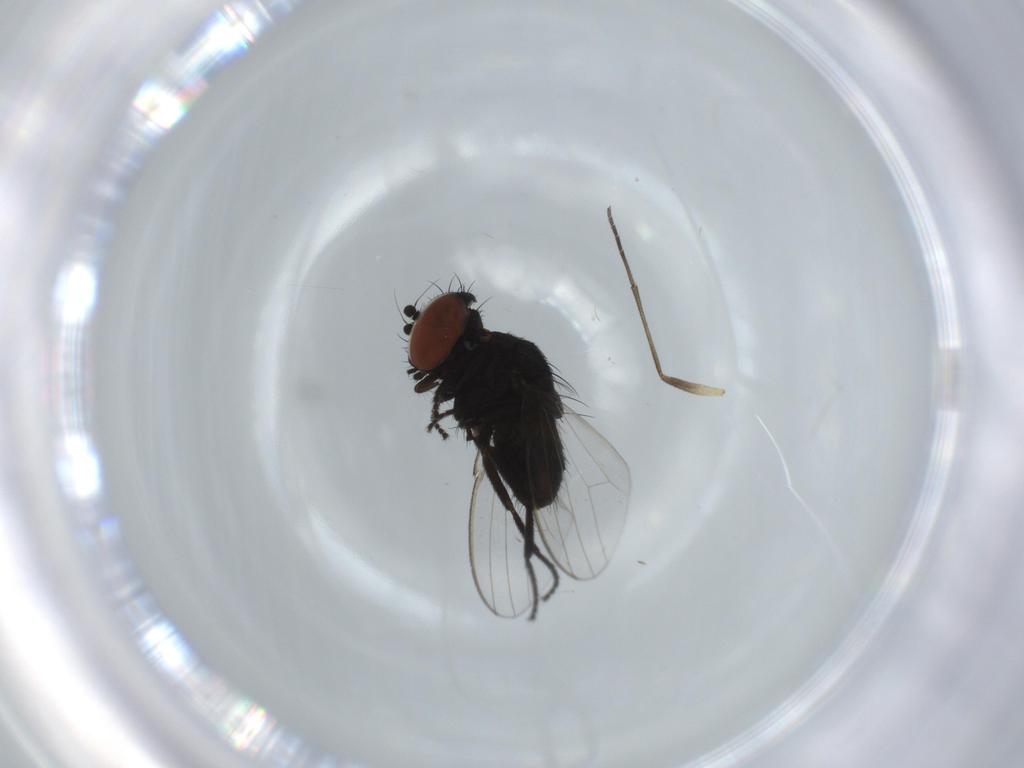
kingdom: Animalia
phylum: Arthropoda
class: Insecta
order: Diptera
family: Milichiidae
